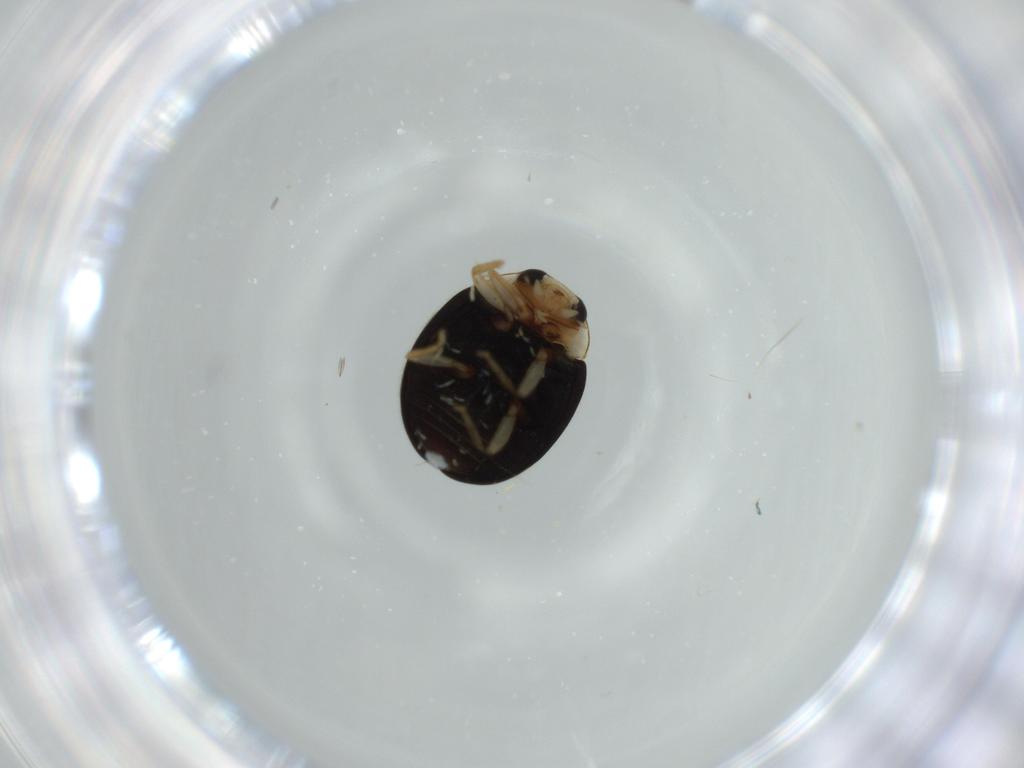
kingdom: Animalia
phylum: Arthropoda
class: Insecta
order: Coleoptera
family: Coccinellidae
